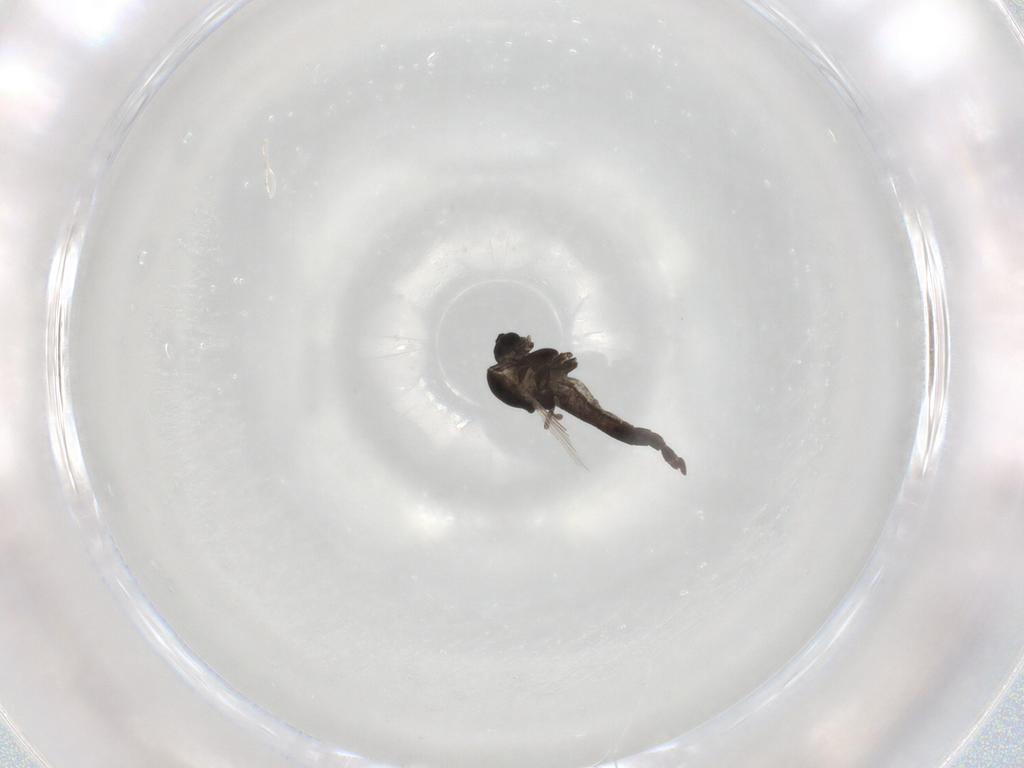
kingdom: Animalia
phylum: Arthropoda
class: Insecta
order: Diptera
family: Chironomidae
